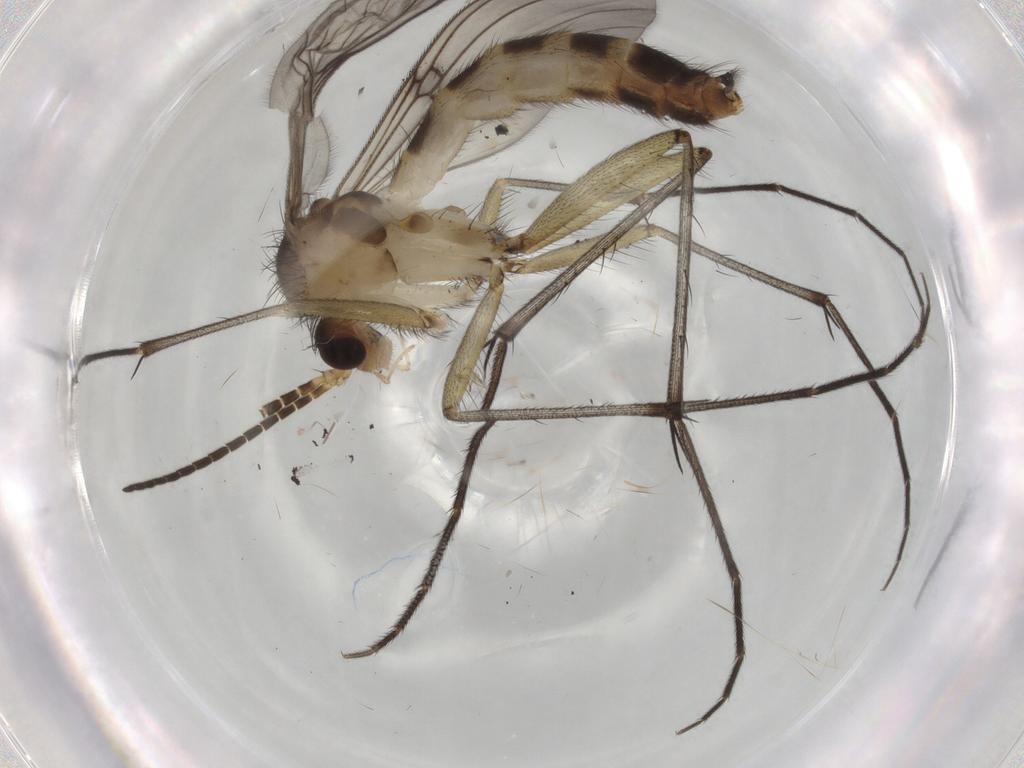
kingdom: Animalia
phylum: Arthropoda
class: Insecta
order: Diptera
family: Mycetophilidae
